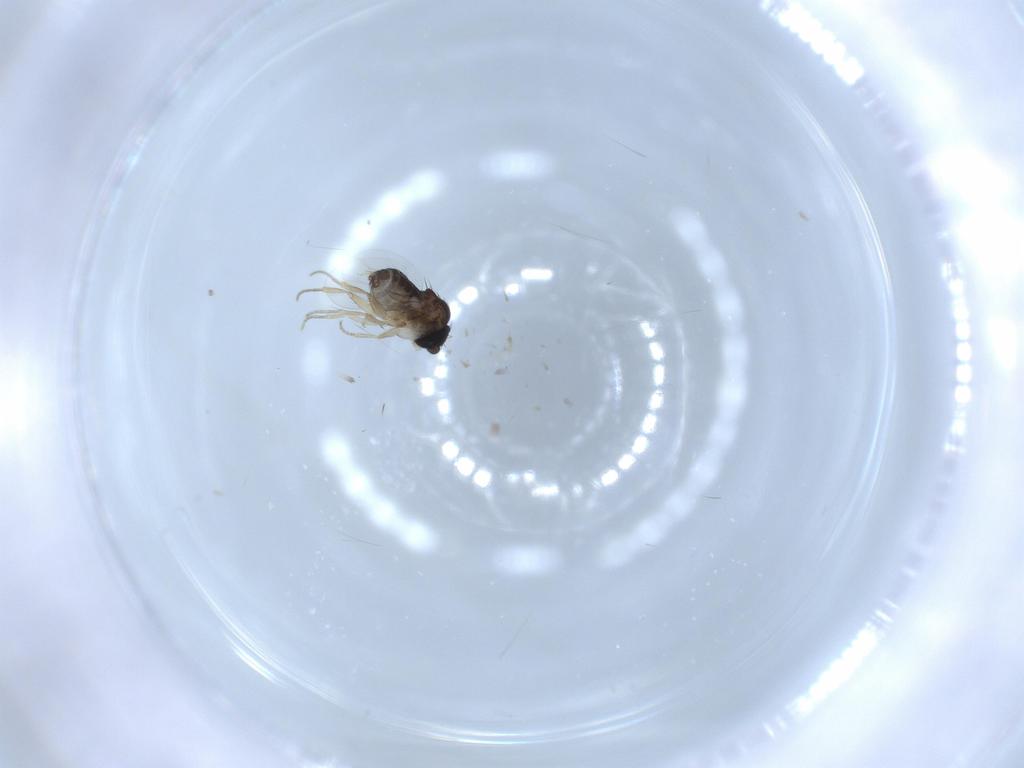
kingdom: Animalia
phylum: Arthropoda
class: Insecta
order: Diptera
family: Phoridae
